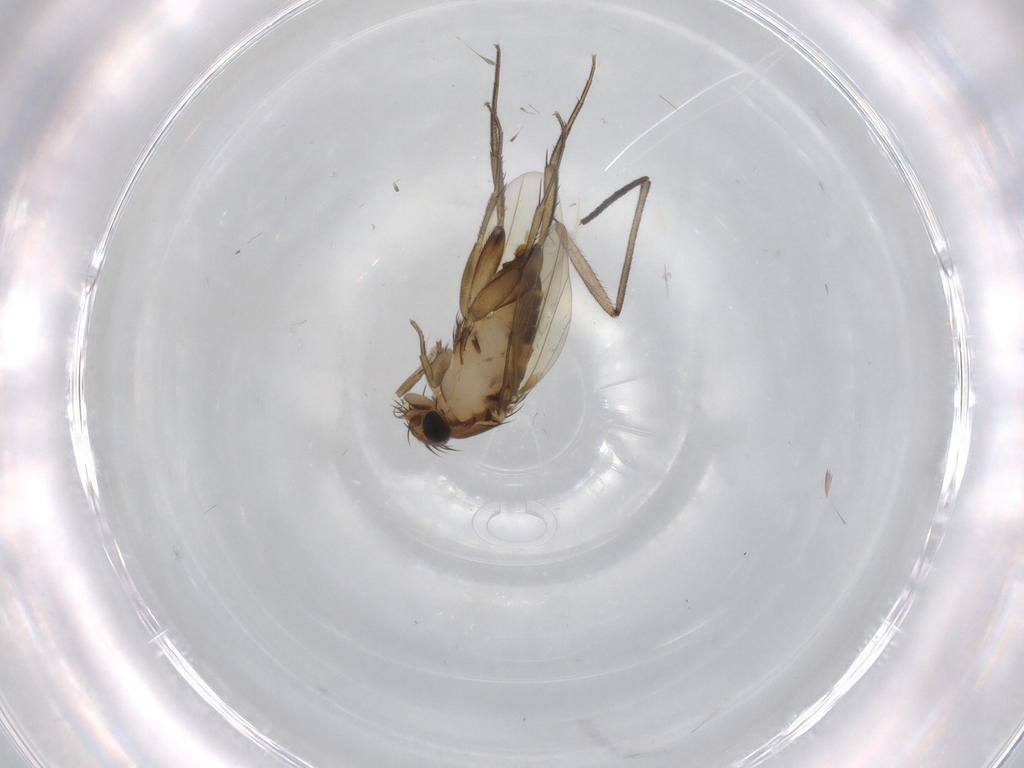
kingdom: Animalia
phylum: Arthropoda
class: Insecta
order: Diptera
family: Phoridae
